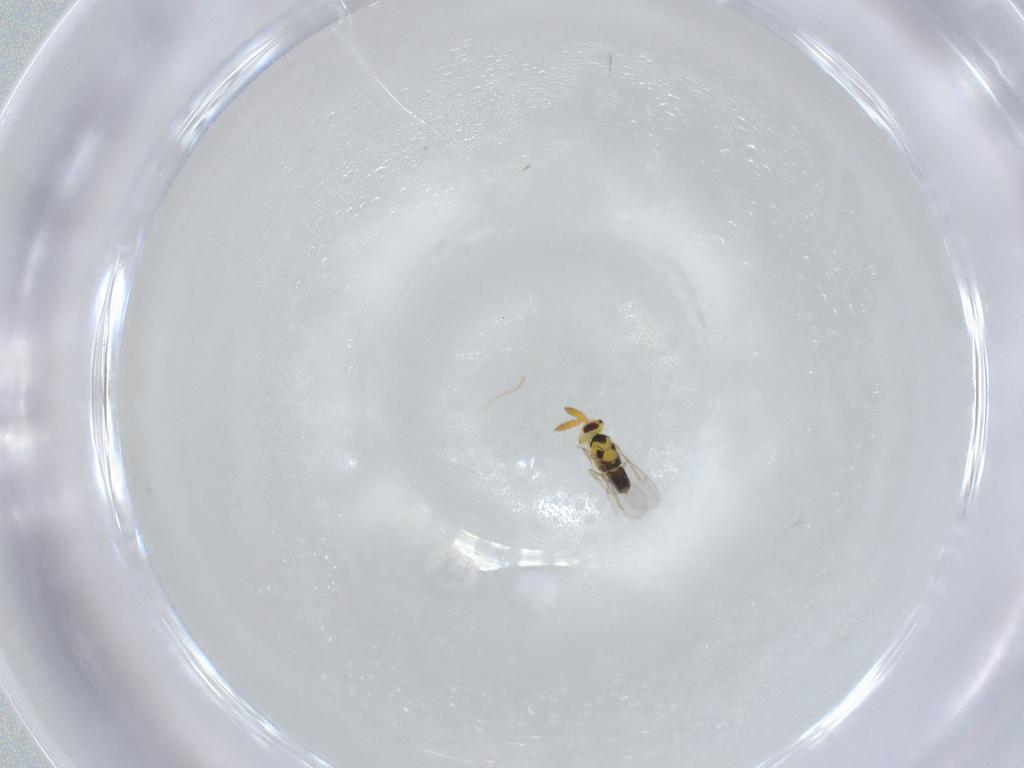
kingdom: Animalia
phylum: Arthropoda
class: Insecta
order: Hymenoptera
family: Aphelinidae
